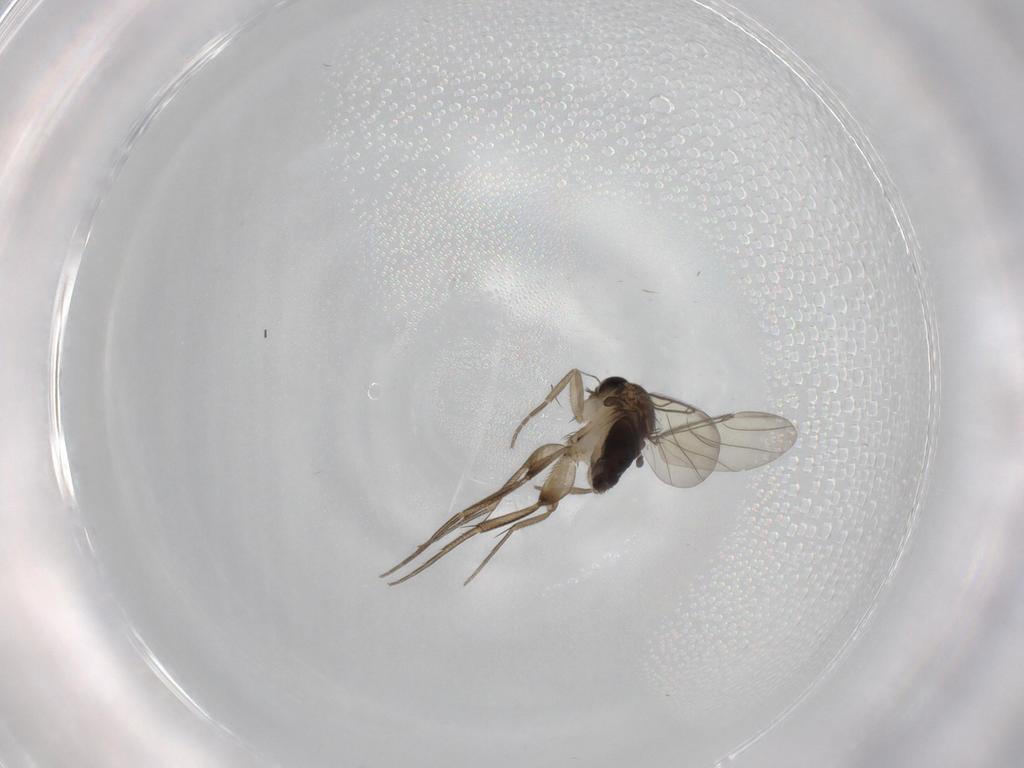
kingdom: Animalia
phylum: Arthropoda
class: Insecta
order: Diptera
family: Phoridae
